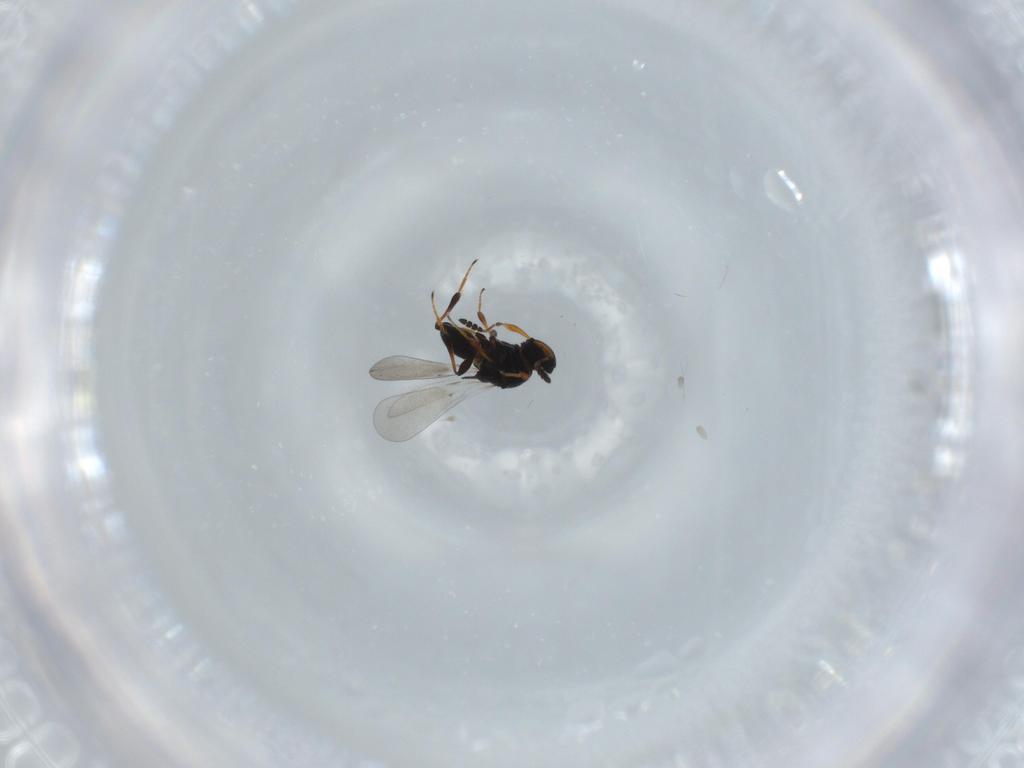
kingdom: Animalia
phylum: Arthropoda
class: Insecta
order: Hymenoptera
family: Platygastridae
